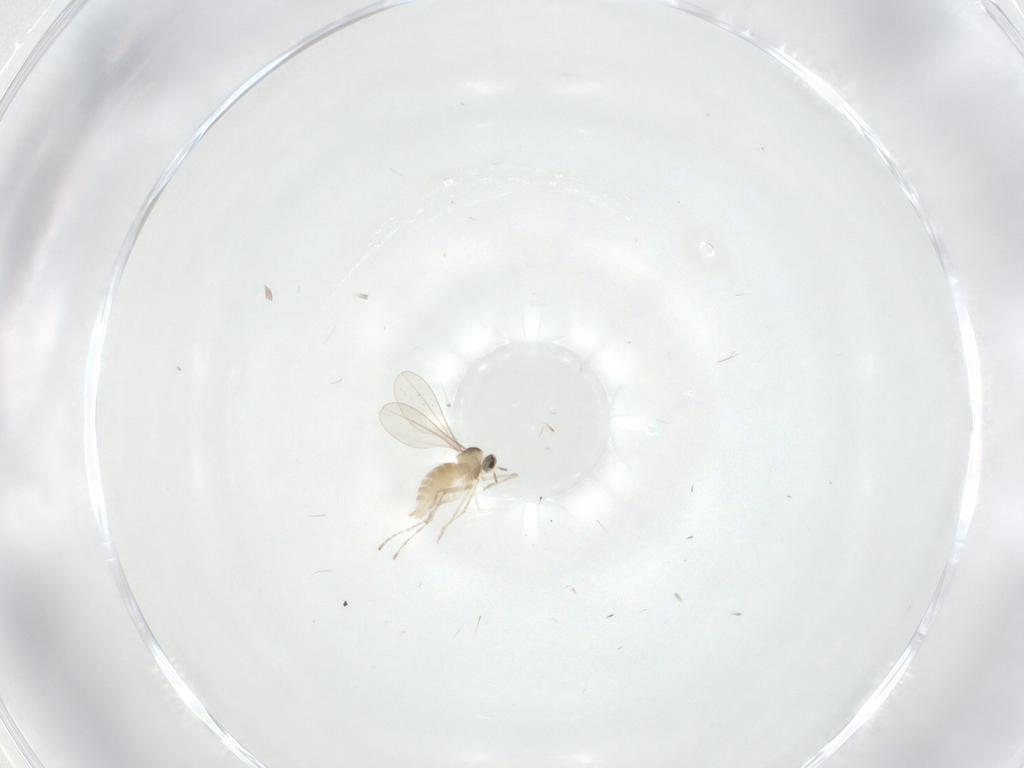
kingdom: Animalia
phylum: Arthropoda
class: Insecta
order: Diptera
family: Cecidomyiidae
